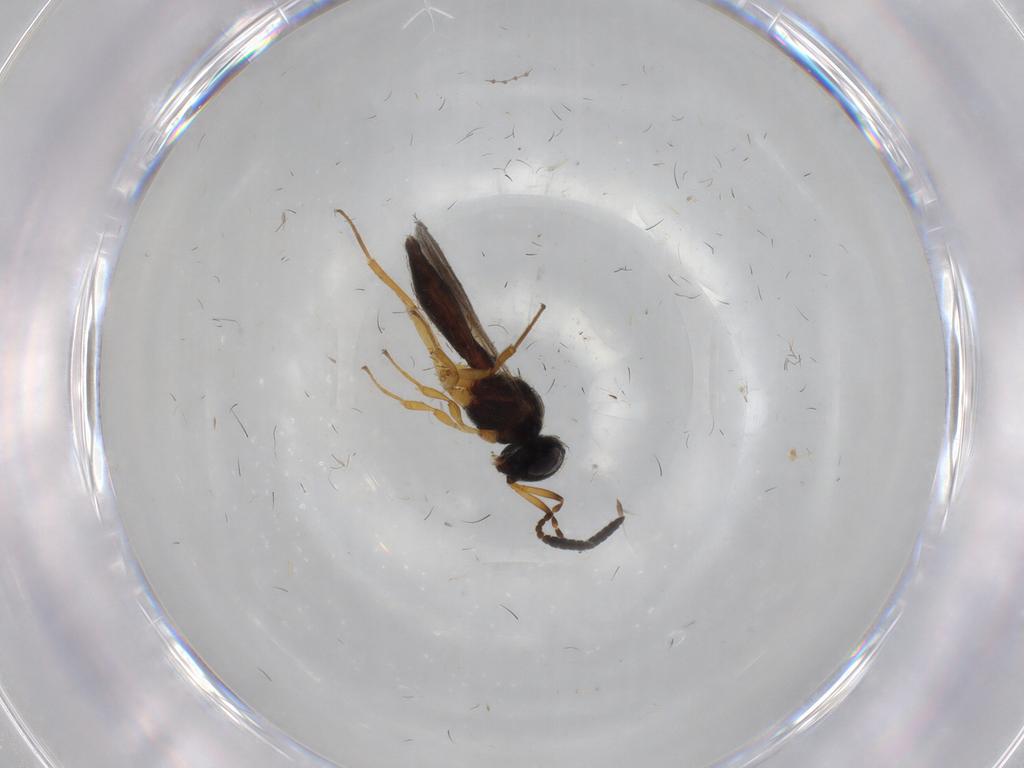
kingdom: Animalia
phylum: Arthropoda
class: Insecta
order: Hymenoptera
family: Scelionidae
